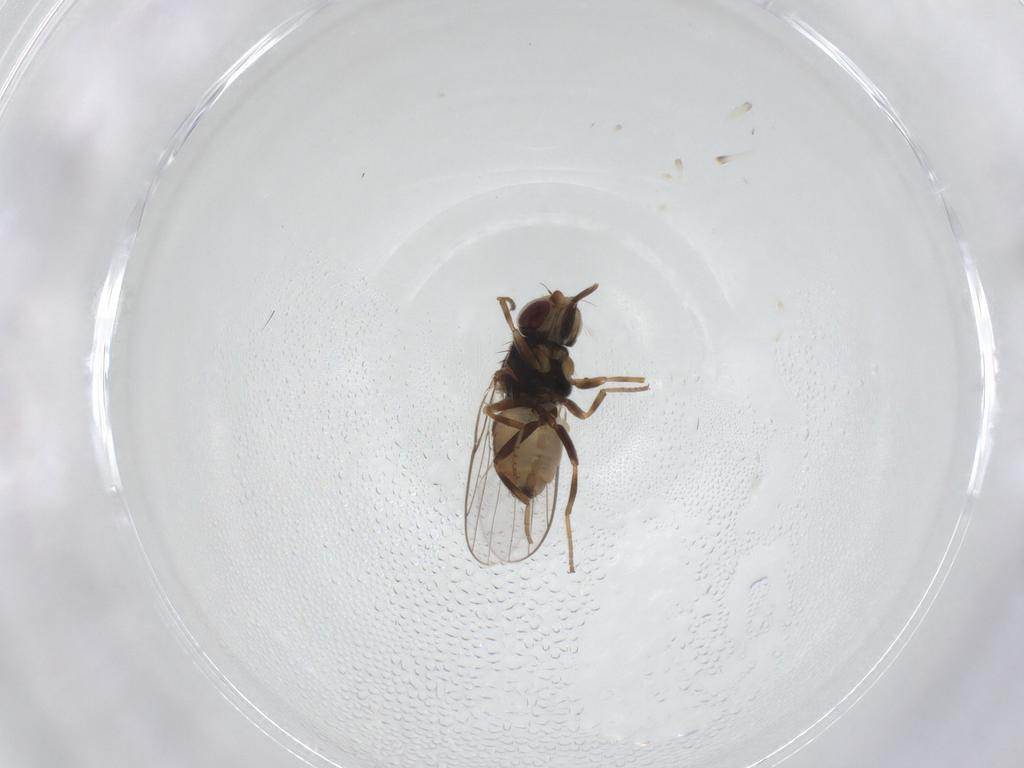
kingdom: Animalia
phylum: Arthropoda
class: Insecta
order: Diptera
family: Chloropidae
